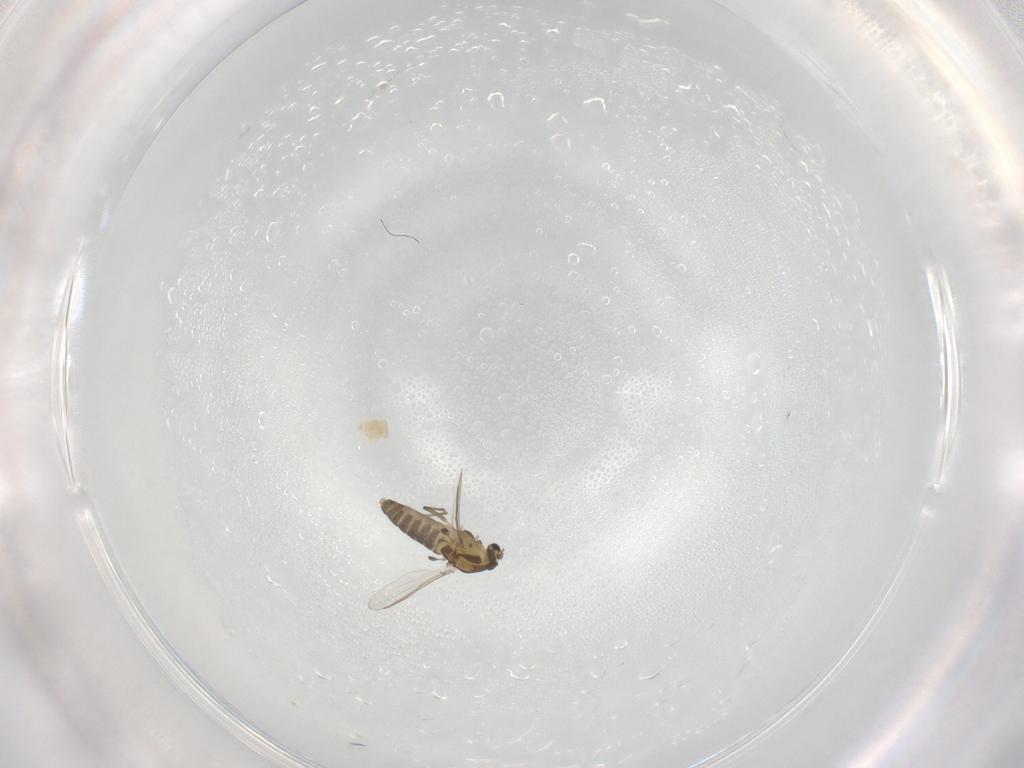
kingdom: Animalia
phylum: Arthropoda
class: Insecta
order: Diptera
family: Chironomidae
